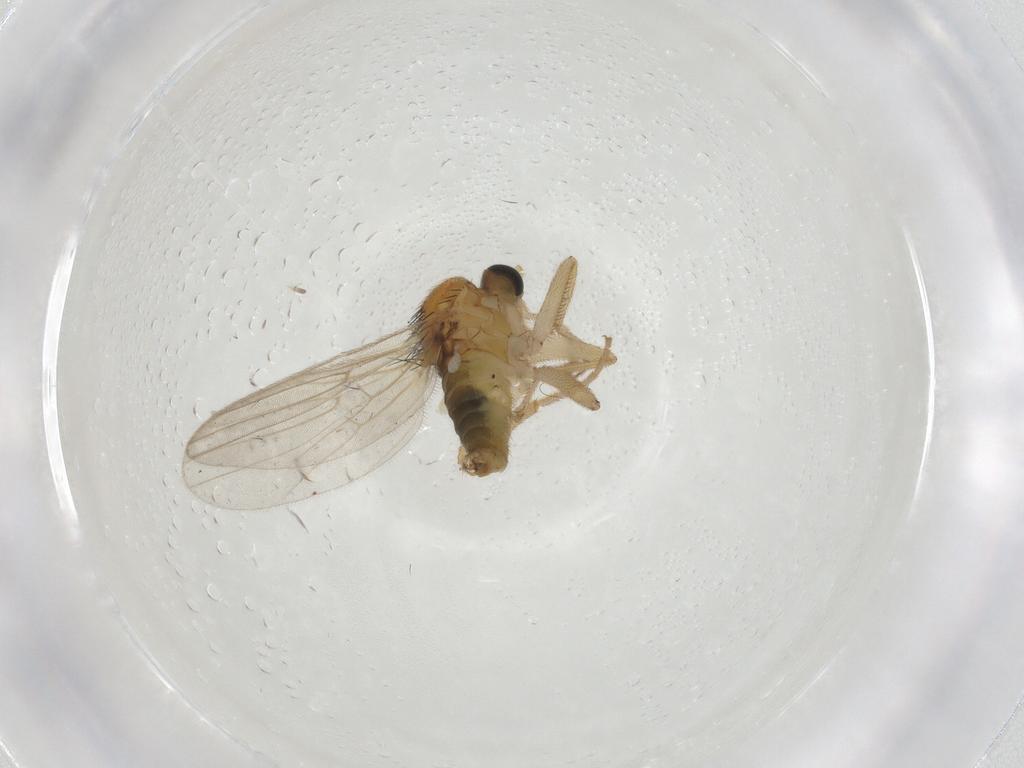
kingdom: Animalia
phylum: Arthropoda
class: Insecta
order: Diptera
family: Hybotidae
